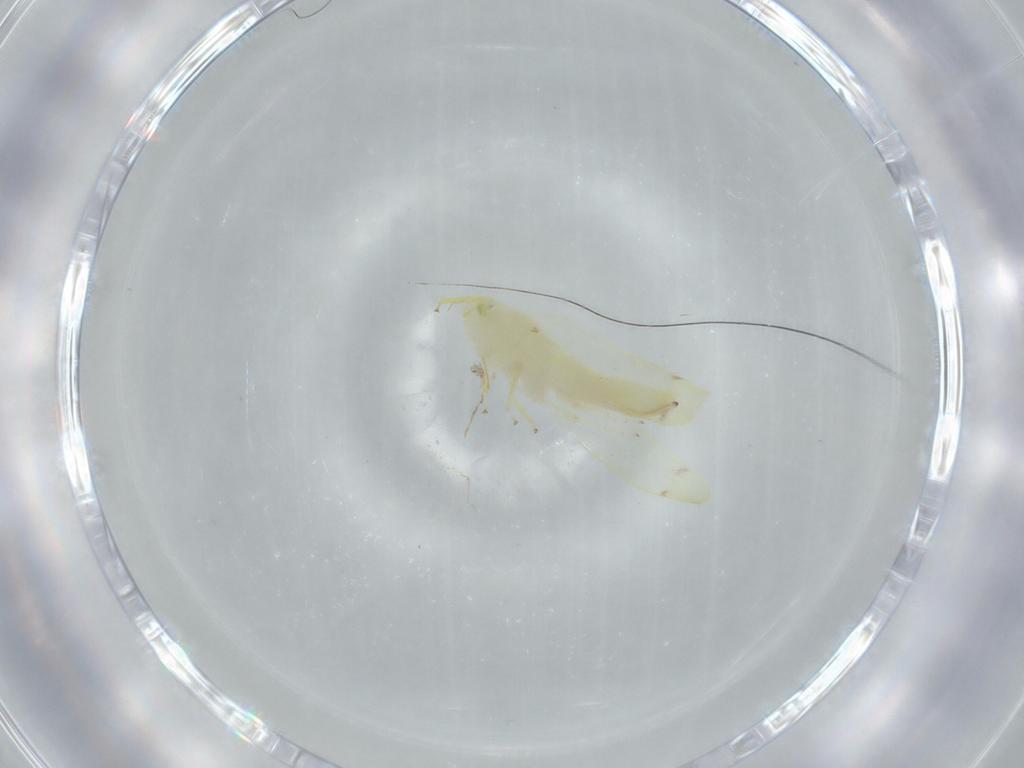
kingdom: Animalia
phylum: Arthropoda
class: Insecta
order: Hemiptera
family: Cicadellidae
